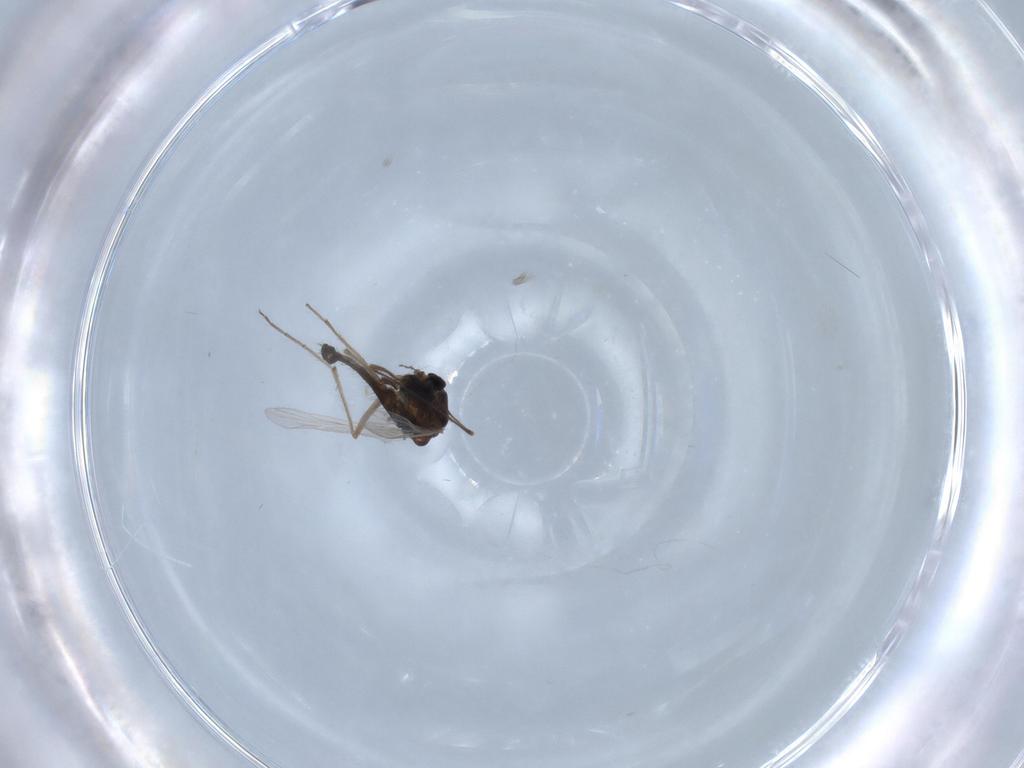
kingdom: Animalia
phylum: Arthropoda
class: Insecta
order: Diptera
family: Chironomidae
